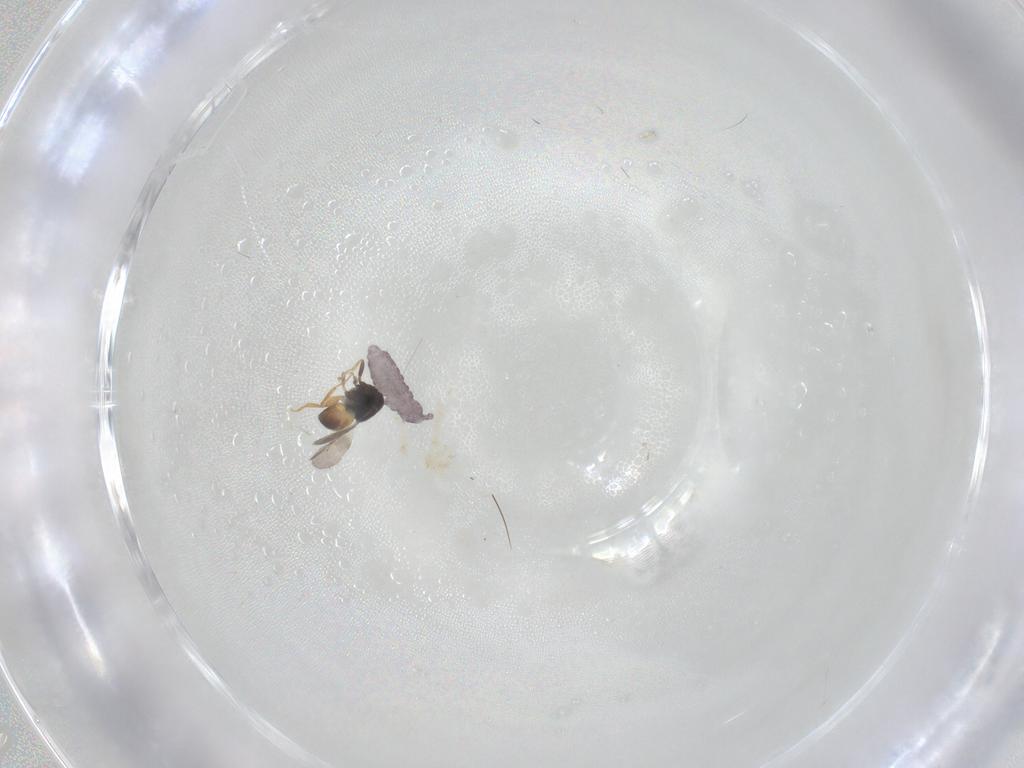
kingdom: Animalia
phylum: Arthropoda
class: Collembola
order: Poduromorpha
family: Hypogastruridae
